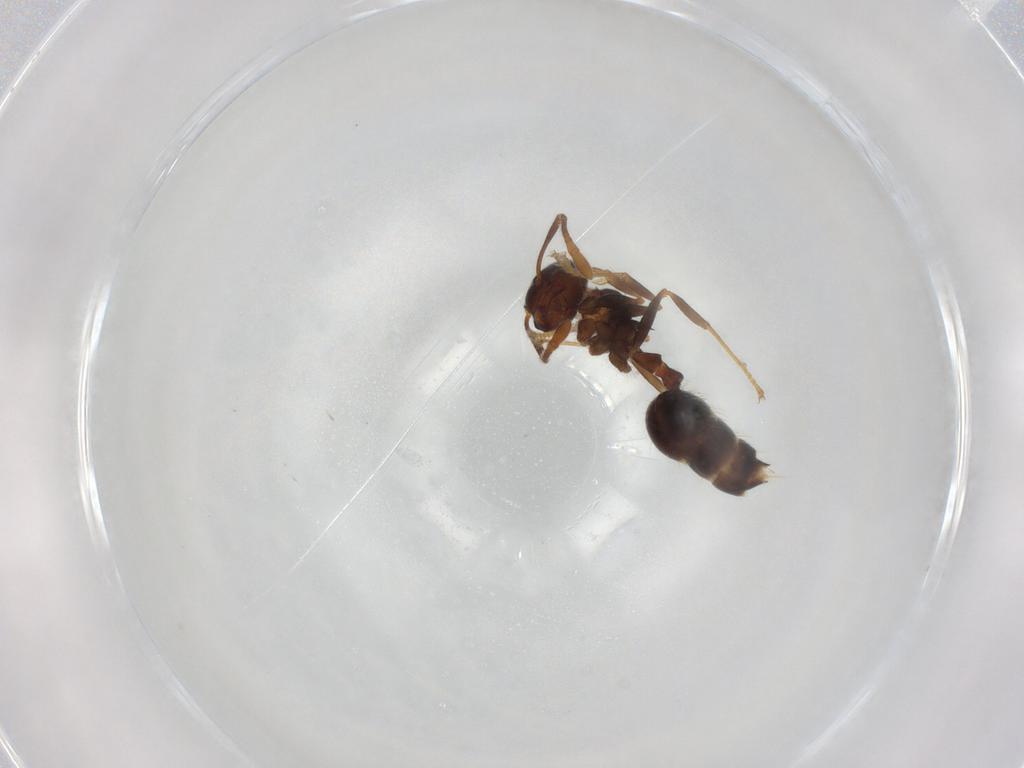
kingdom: Animalia
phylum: Arthropoda
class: Insecta
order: Hymenoptera
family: Formicidae
